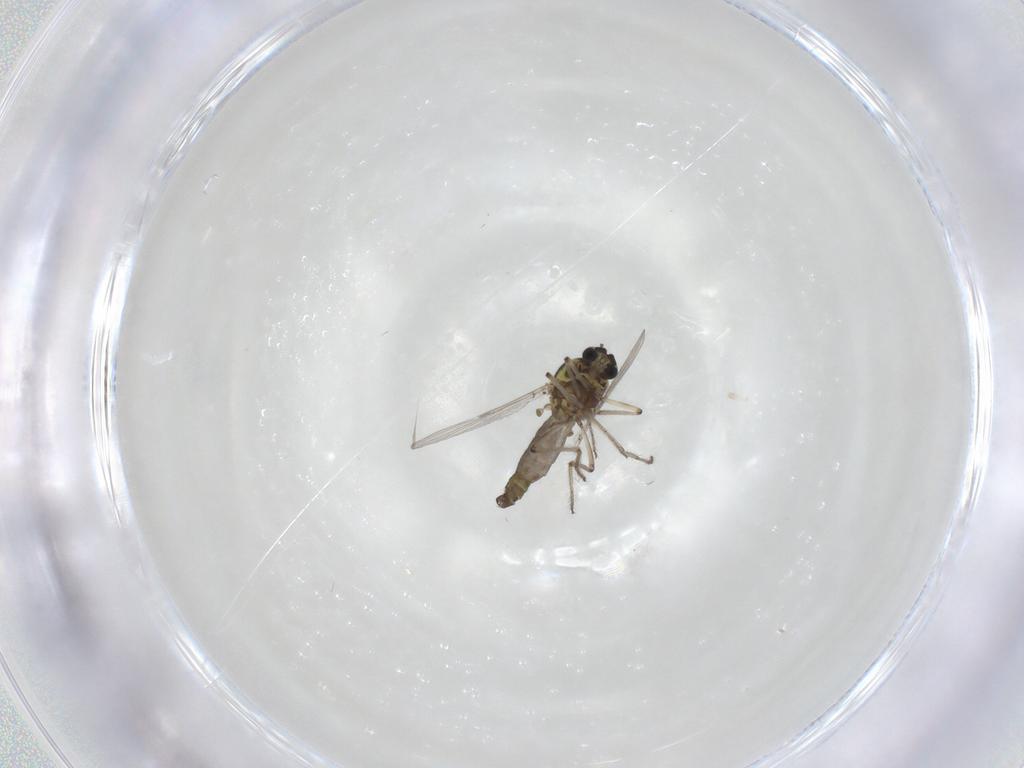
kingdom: Animalia
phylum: Arthropoda
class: Insecta
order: Diptera
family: Ceratopogonidae
